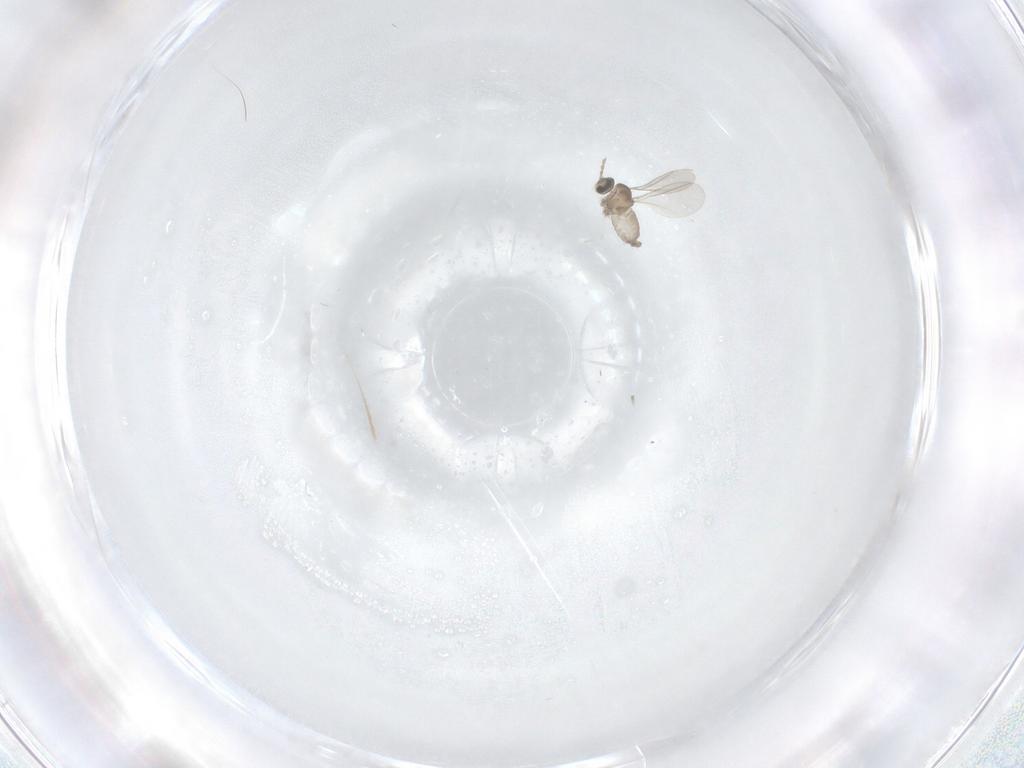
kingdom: Animalia
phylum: Arthropoda
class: Insecta
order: Diptera
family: Cecidomyiidae
